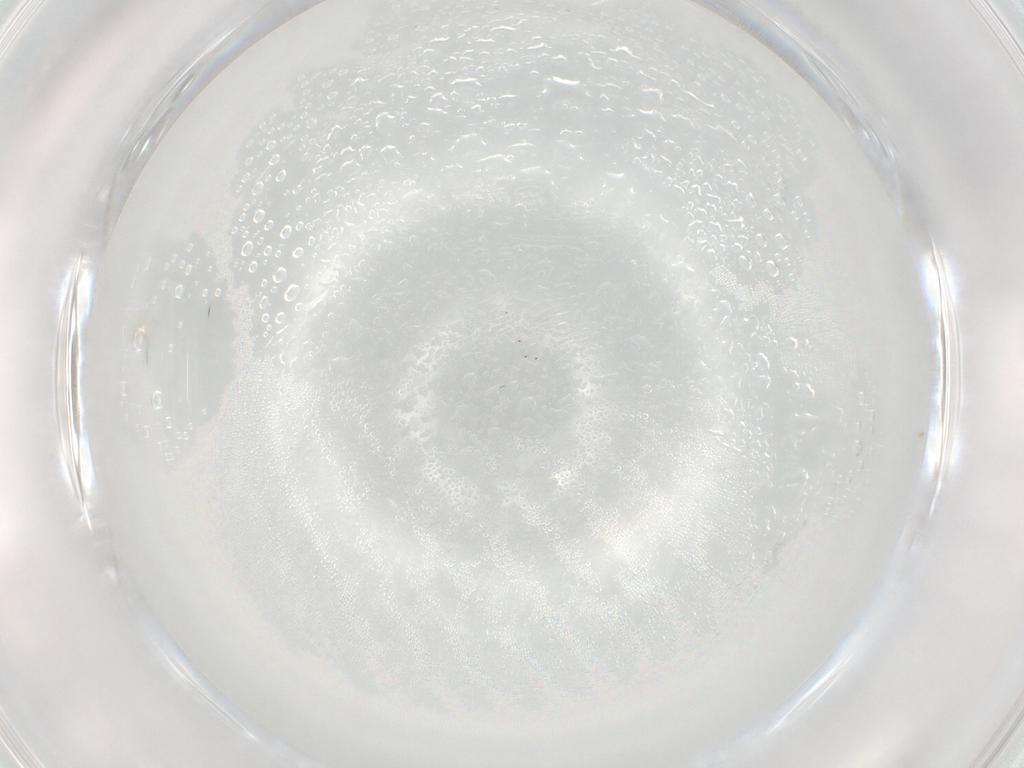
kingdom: Animalia
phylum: Arthropoda
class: Insecta
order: Diptera
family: Cecidomyiidae
